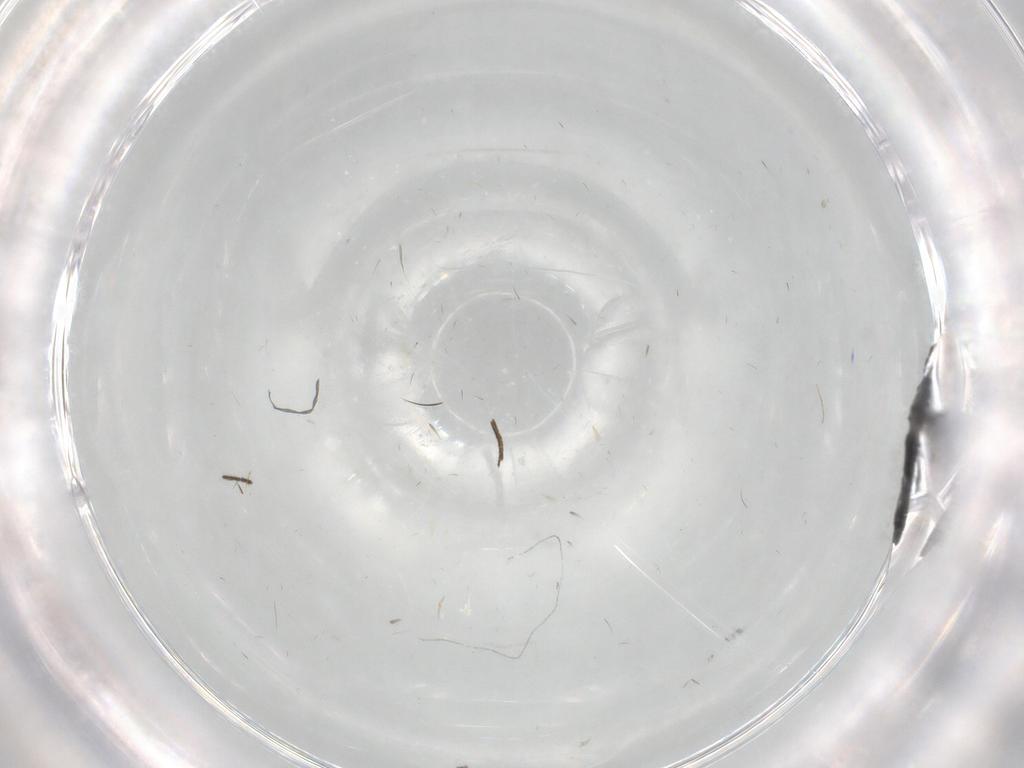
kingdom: Animalia
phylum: Arthropoda
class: Insecta
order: Diptera
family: Sciaridae
